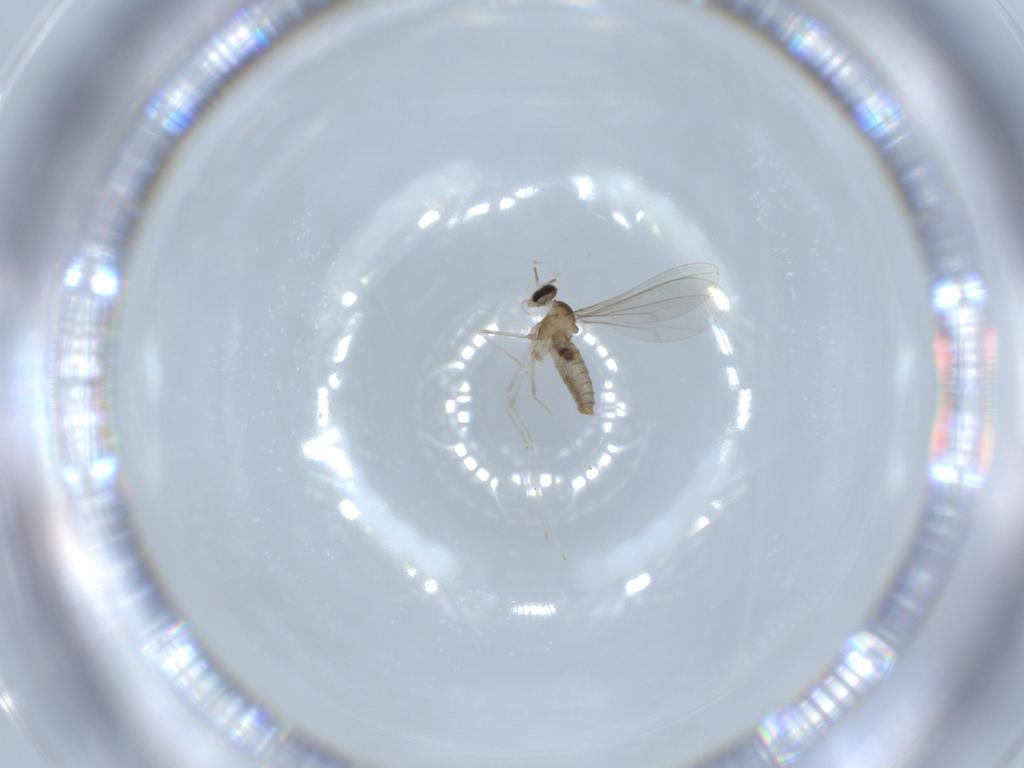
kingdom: Animalia
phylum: Arthropoda
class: Insecta
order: Diptera
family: Cecidomyiidae
